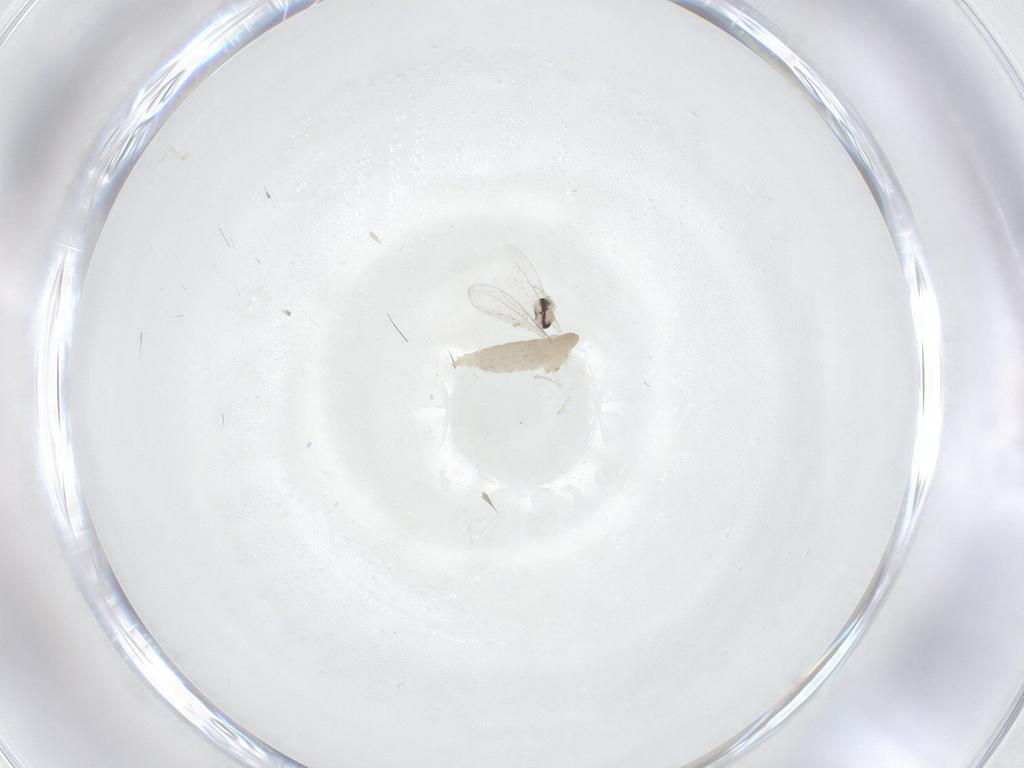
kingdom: Animalia
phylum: Arthropoda
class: Insecta
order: Diptera
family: Cecidomyiidae
